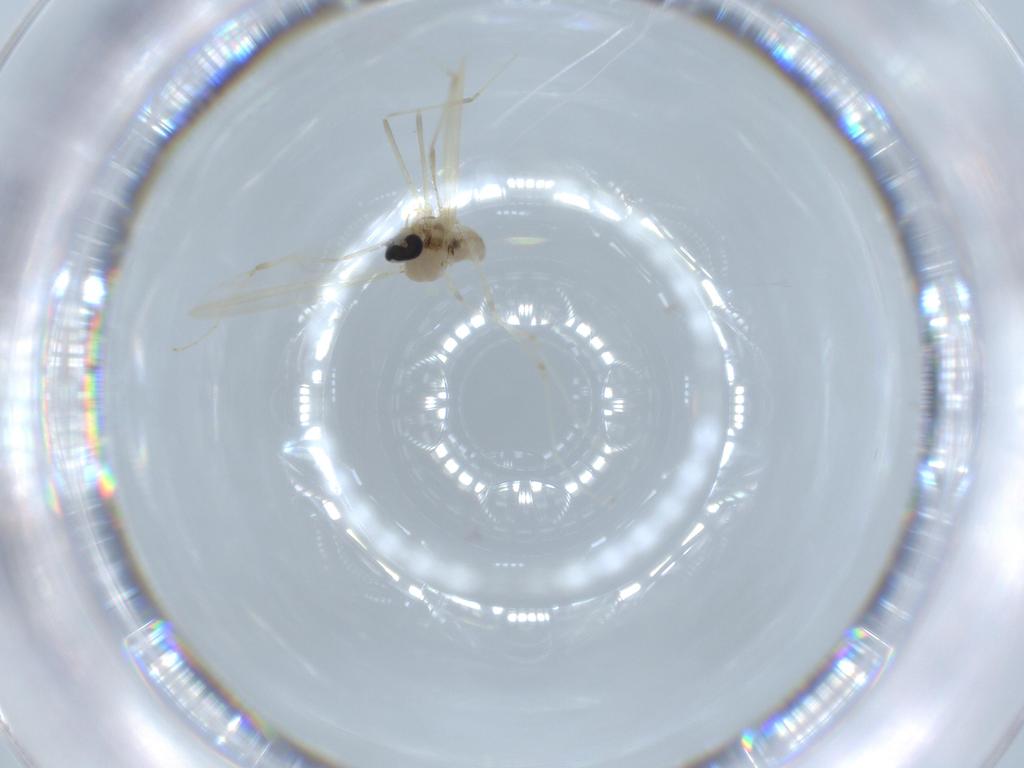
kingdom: Animalia
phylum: Arthropoda
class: Insecta
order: Diptera
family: Cecidomyiidae
